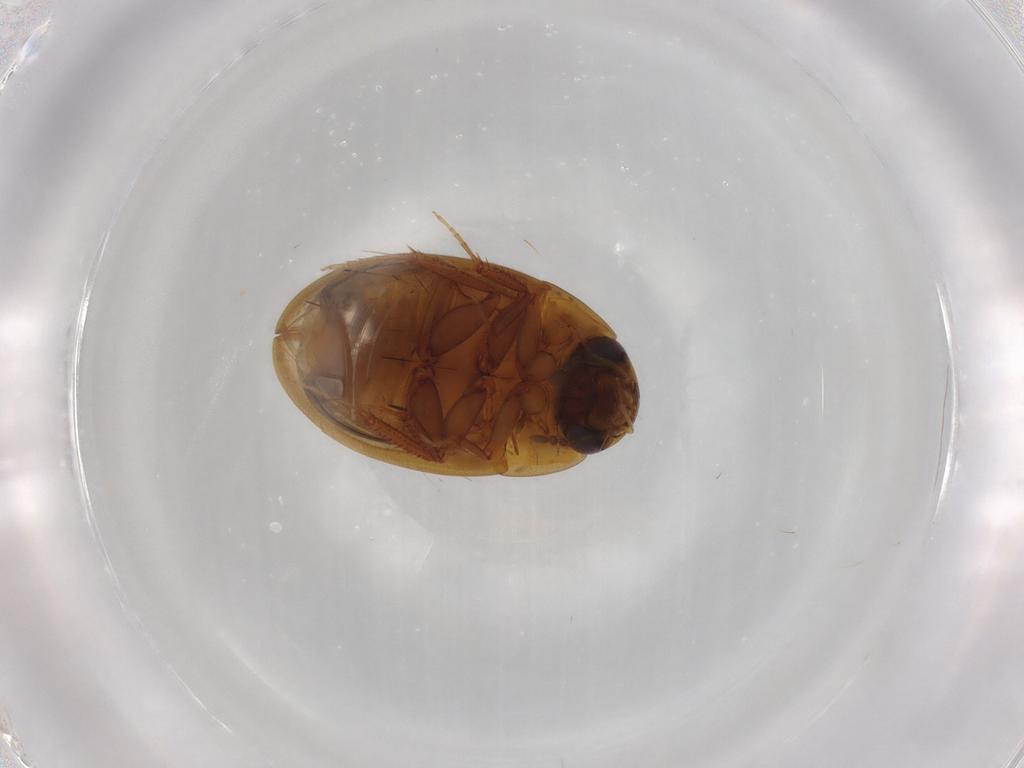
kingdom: Animalia
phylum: Arthropoda
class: Insecta
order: Coleoptera
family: Hydrophilidae
